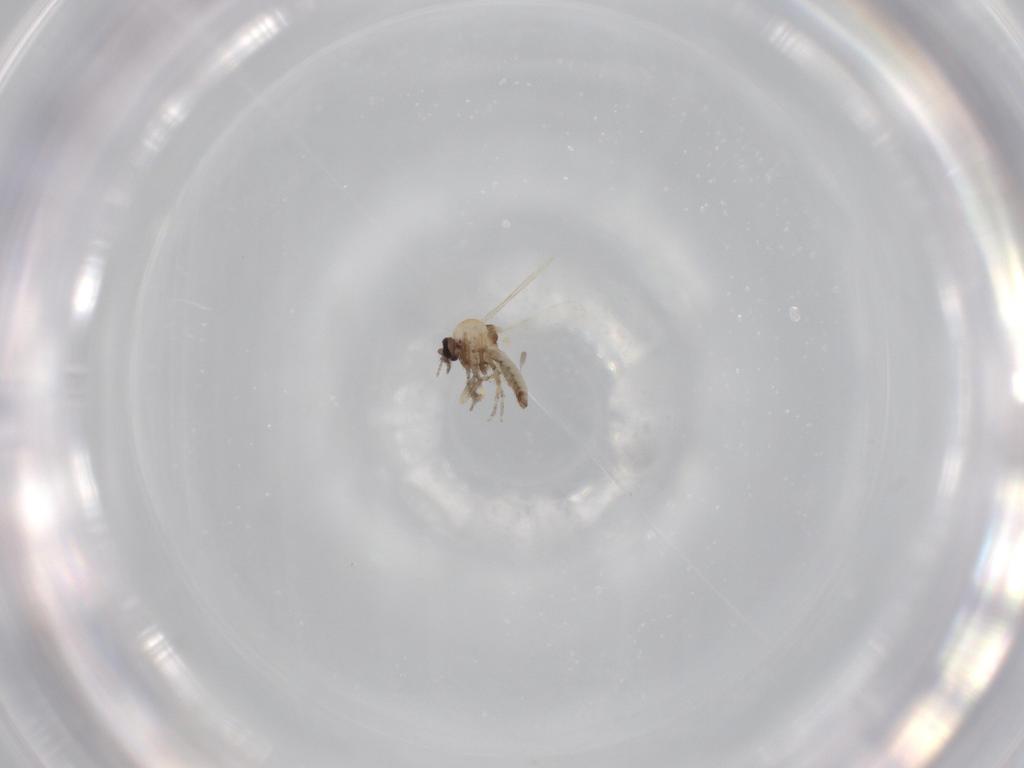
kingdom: Animalia
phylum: Arthropoda
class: Insecta
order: Diptera
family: Ceratopogonidae
